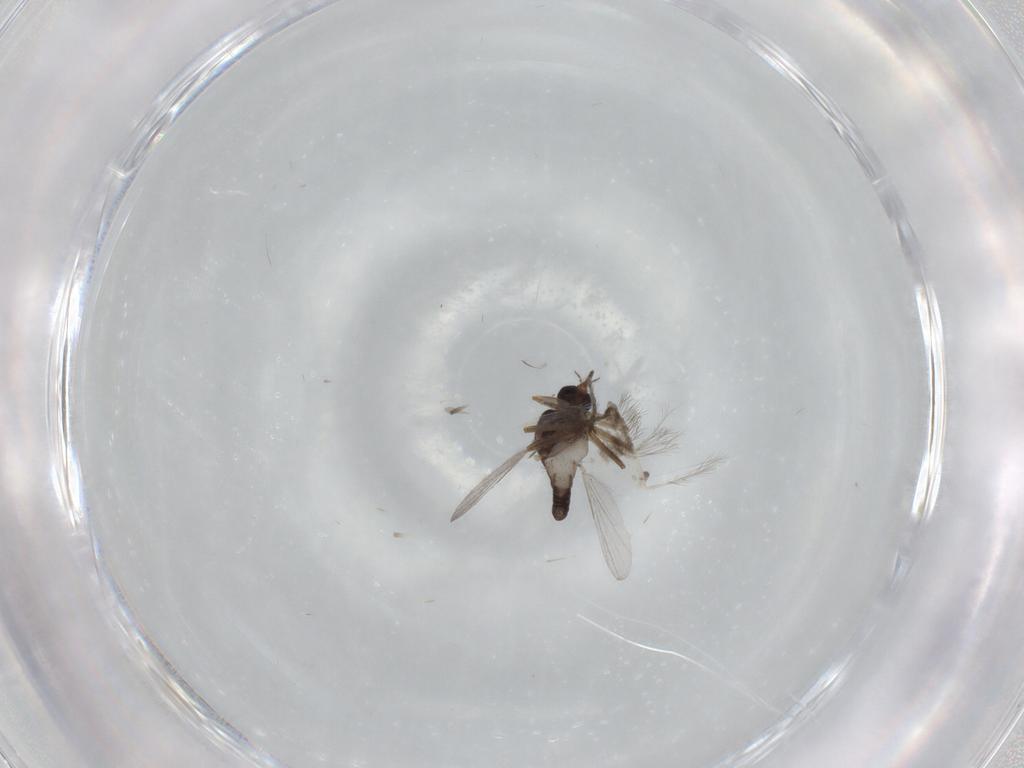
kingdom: Animalia
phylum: Arthropoda
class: Insecta
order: Diptera
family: Ceratopogonidae
